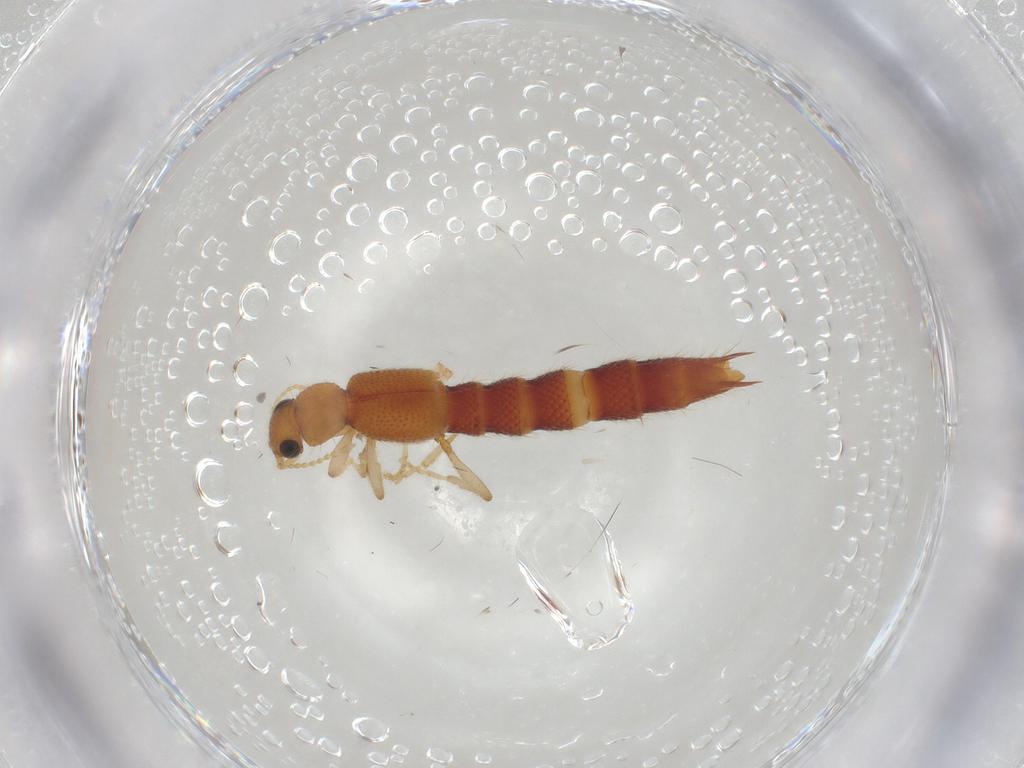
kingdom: Animalia
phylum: Arthropoda
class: Insecta
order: Coleoptera
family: Staphylinidae
